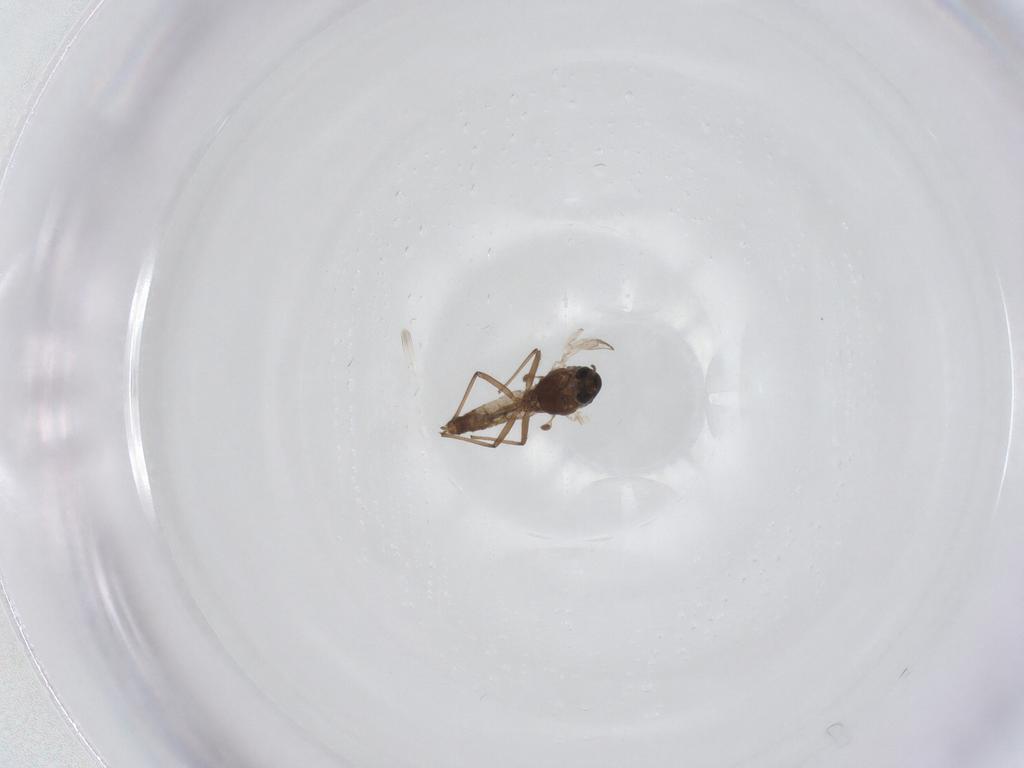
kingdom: Animalia
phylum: Arthropoda
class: Insecta
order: Diptera
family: Chironomidae
